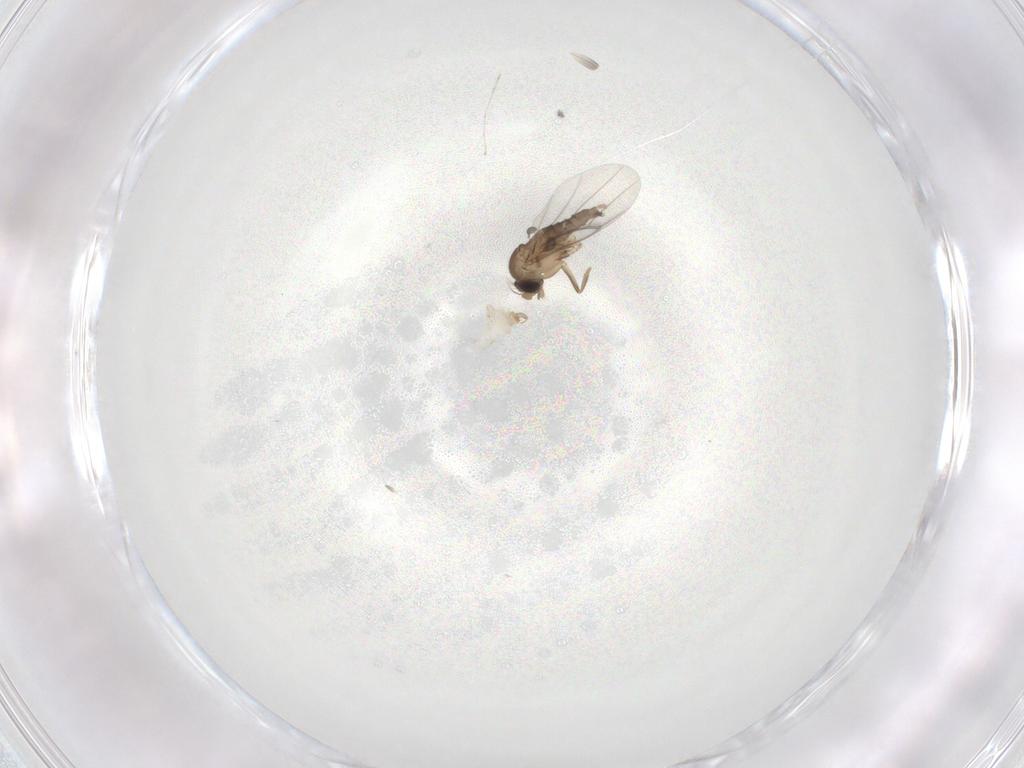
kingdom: Animalia
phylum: Arthropoda
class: Insecta
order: Diptera
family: Cecidomyiidae
